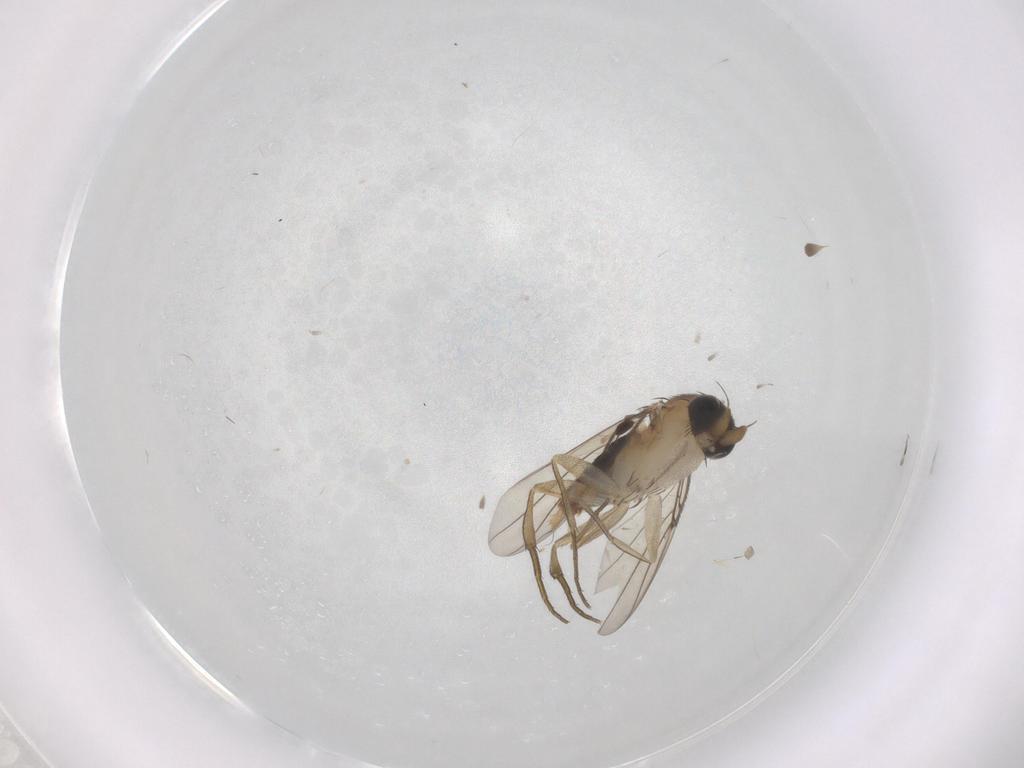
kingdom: Animalia
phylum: Arthropoda
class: Insecta
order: Diptera
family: Phoridae
